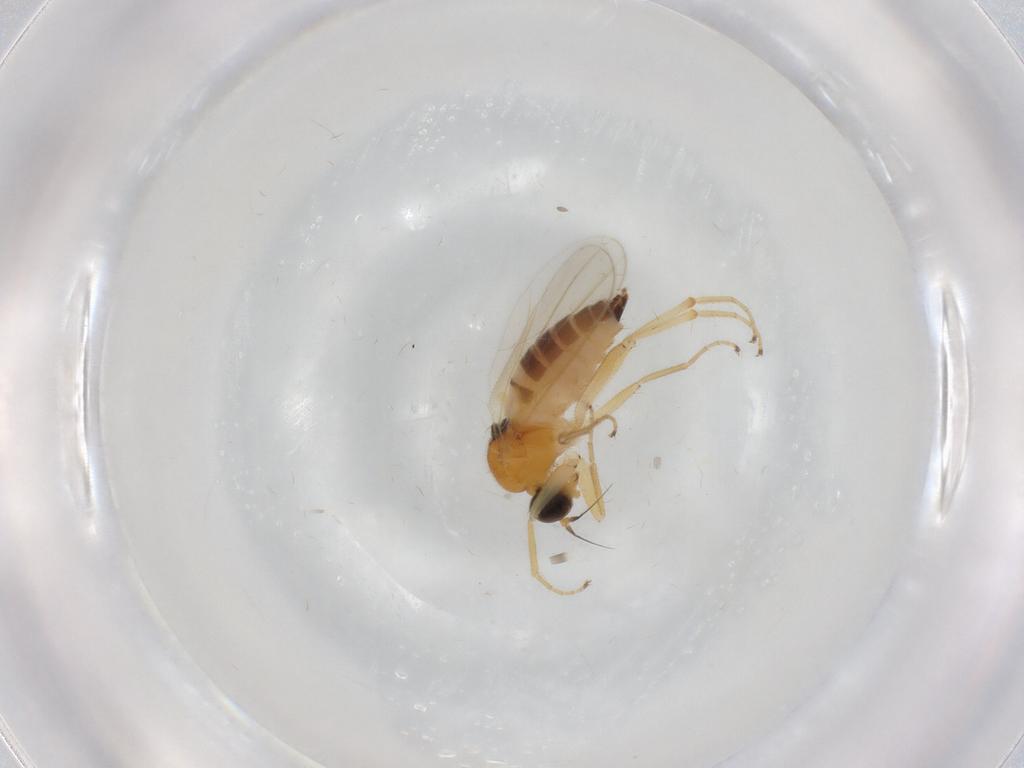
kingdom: Animalia
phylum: Arthropoda
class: Insecta
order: Diptera
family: Hybotidae
